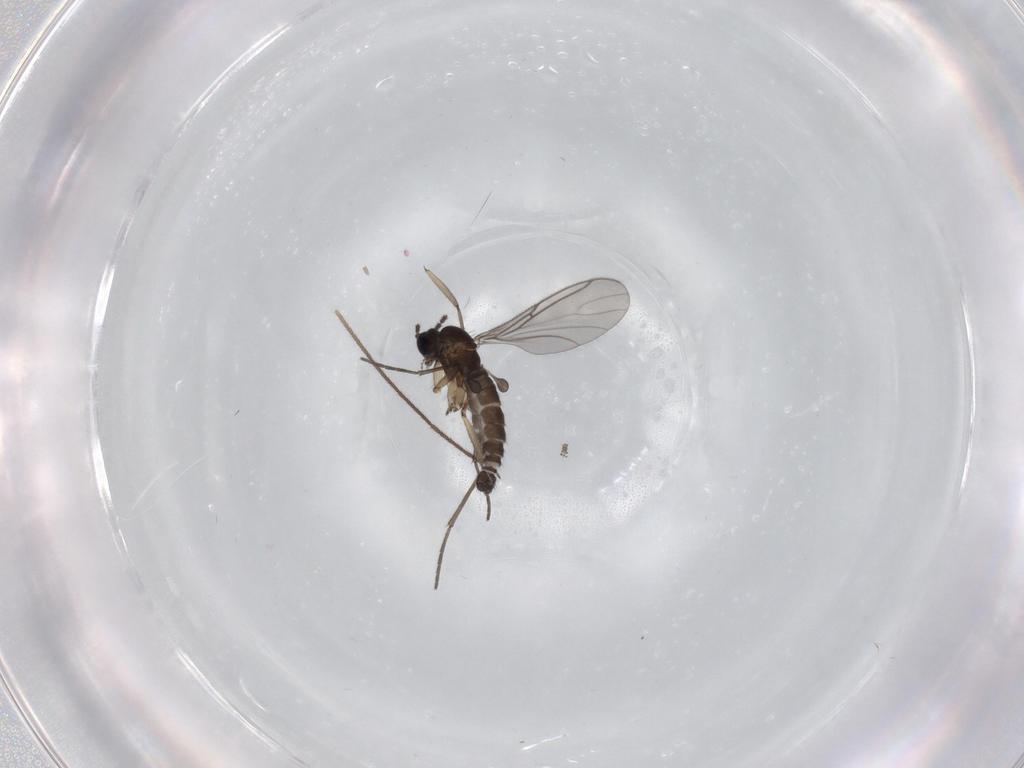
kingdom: Animalia
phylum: Arthropoda
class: Insecta
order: Diptera
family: Sciaridae
